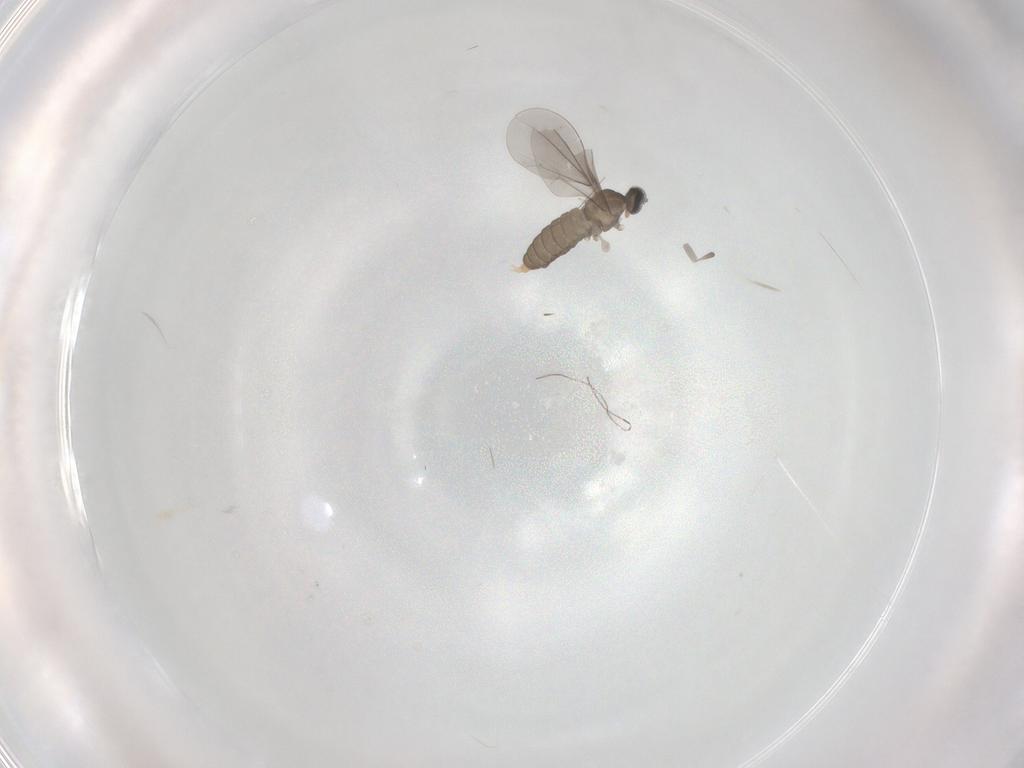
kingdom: Animalia
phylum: Arthropoda
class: Insecta
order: Diptera
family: Cecidomyiidae
